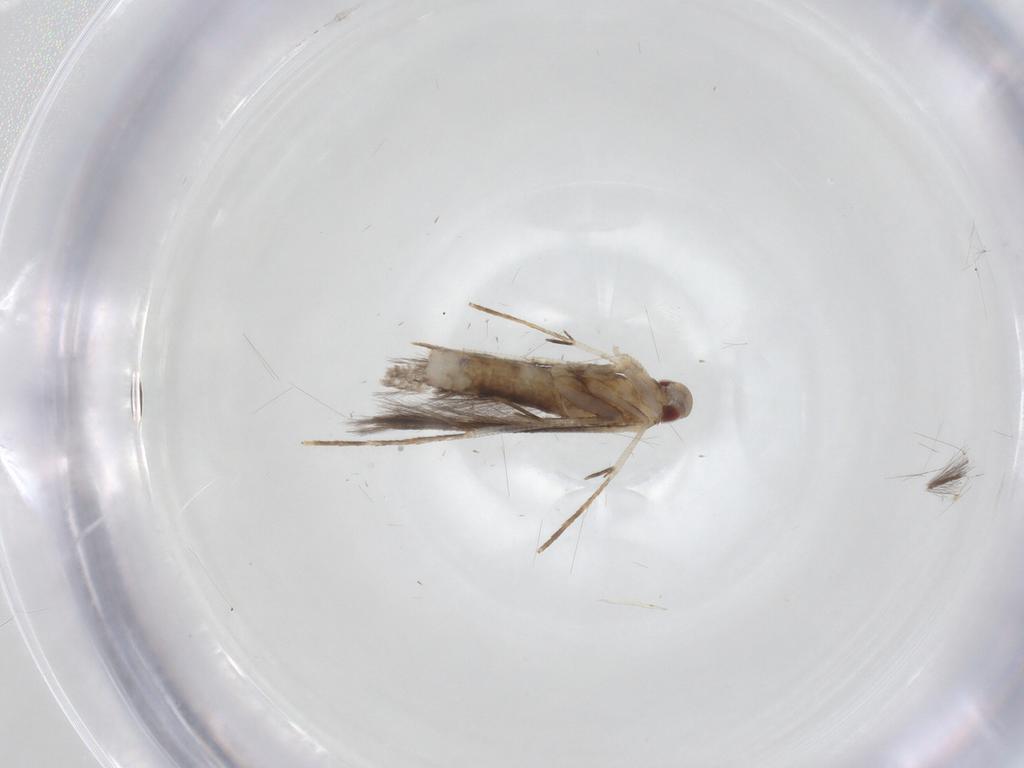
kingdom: Animalia
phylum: Arthropoda
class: Insecta
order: Lepidoptera
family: Cosmopterigidae
